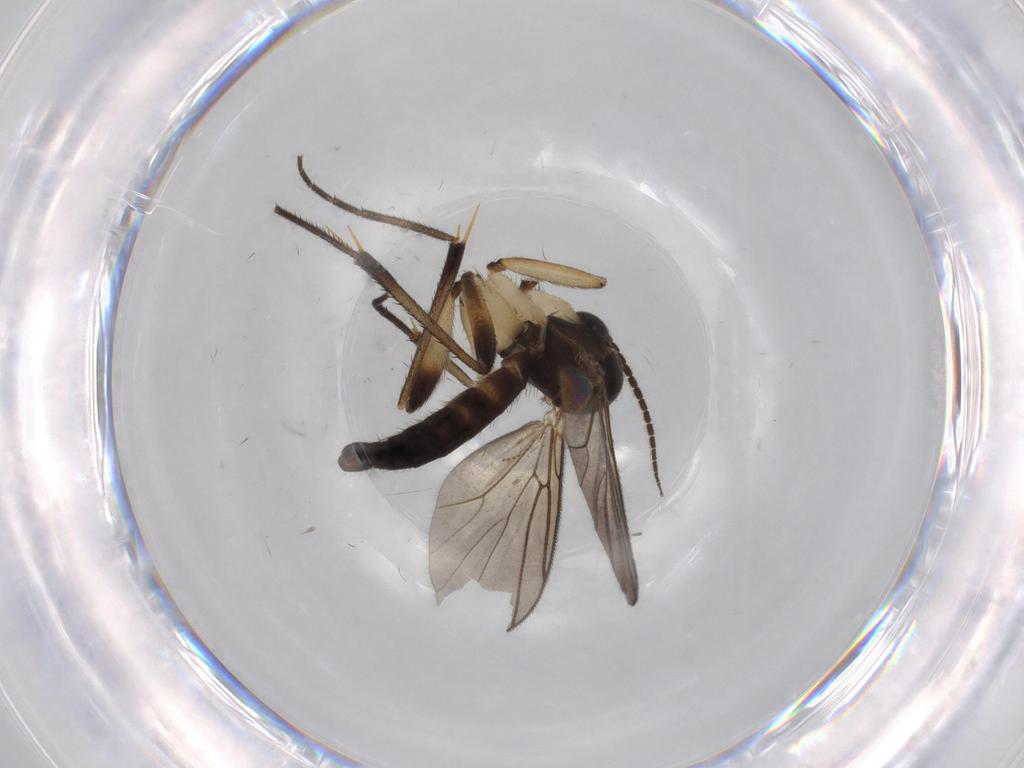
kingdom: Animalia
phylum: Arthropoda
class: Insecta
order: Diptera
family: Mycetophilidae
